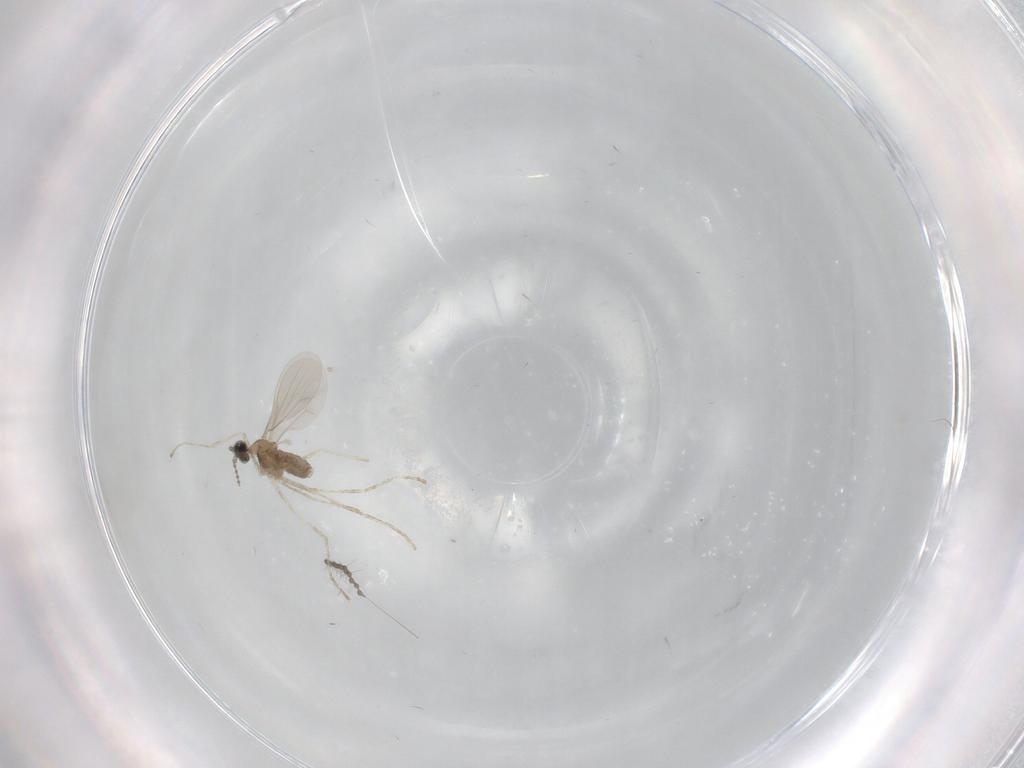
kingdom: Animalia
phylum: Arthropoda
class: Insecta
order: Diptera
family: Cecidomyiidae
